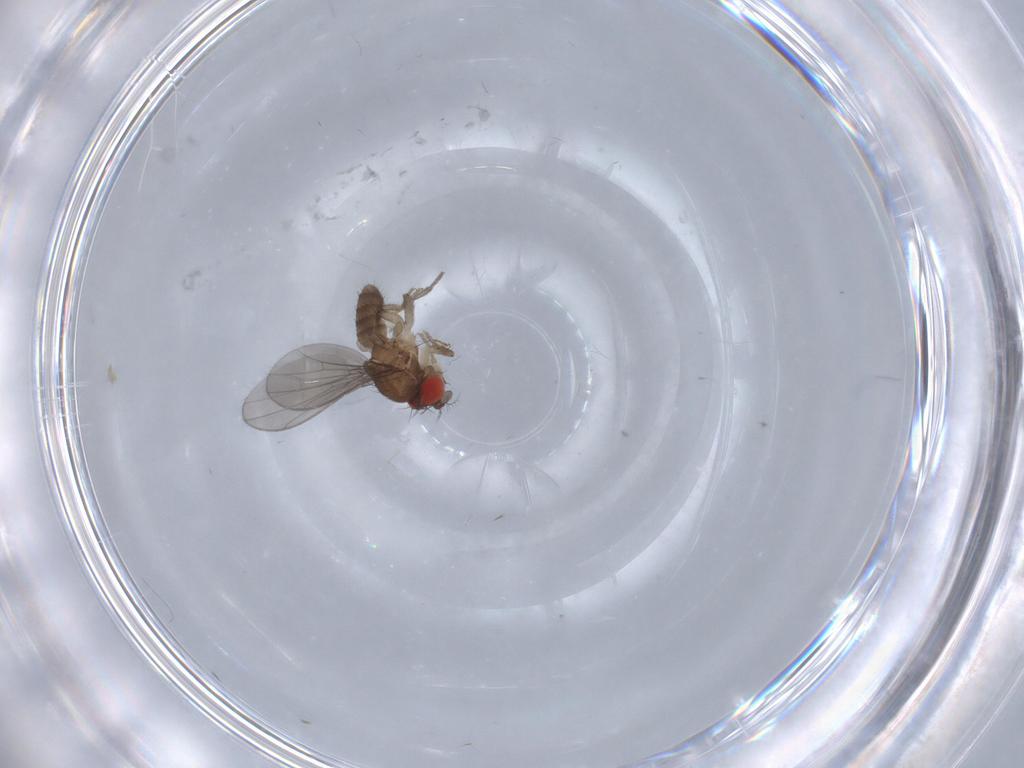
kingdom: Animalia
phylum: Arthropoda
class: Insecta
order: Diptera
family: Drosophilidae
